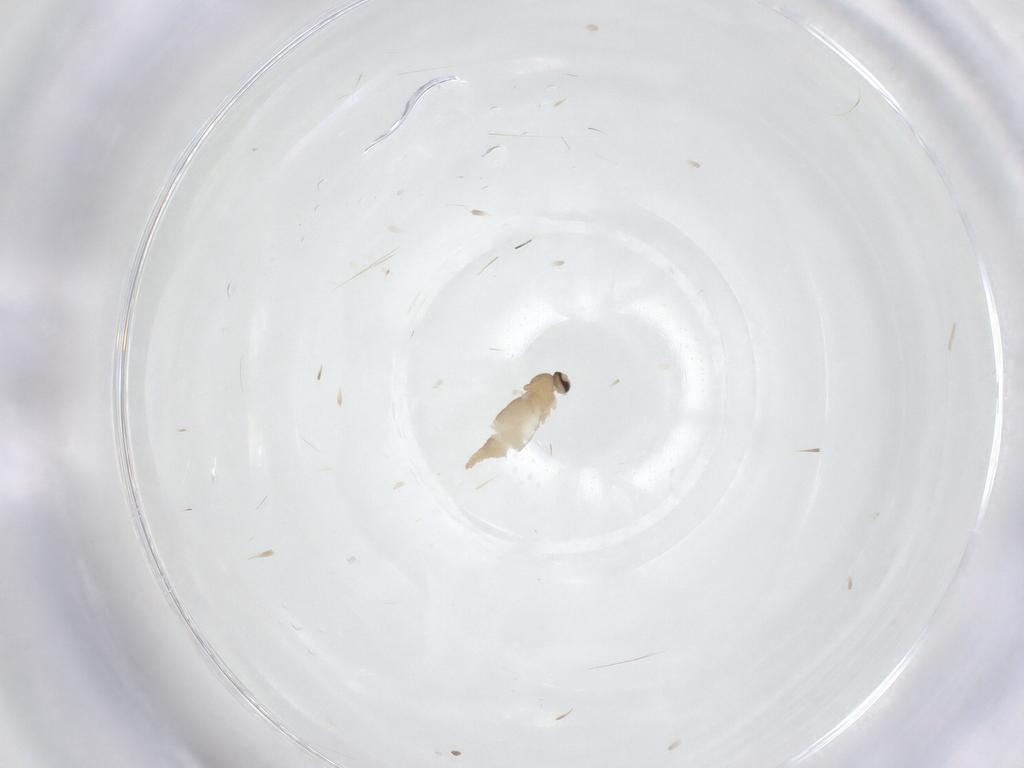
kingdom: Animalia
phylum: Arthropoda
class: Insecta
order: Diptera
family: Cecidomyiidae
